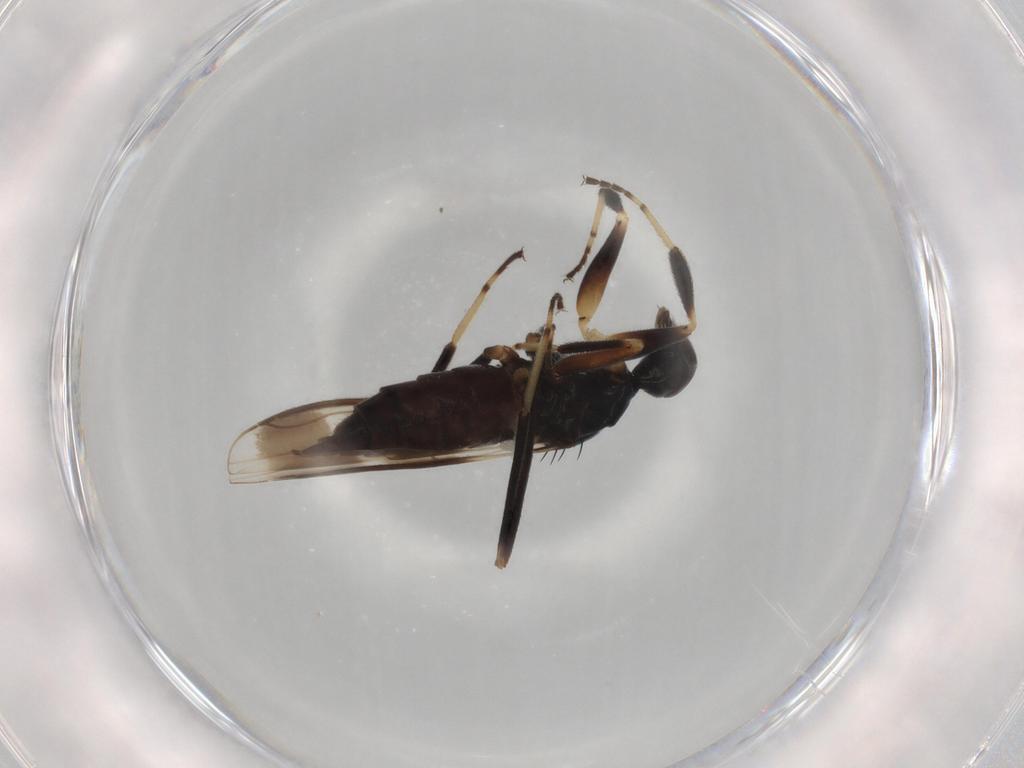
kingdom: Animalia
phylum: Arthropoda
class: Insecta
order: Diptera
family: Hybotidae
